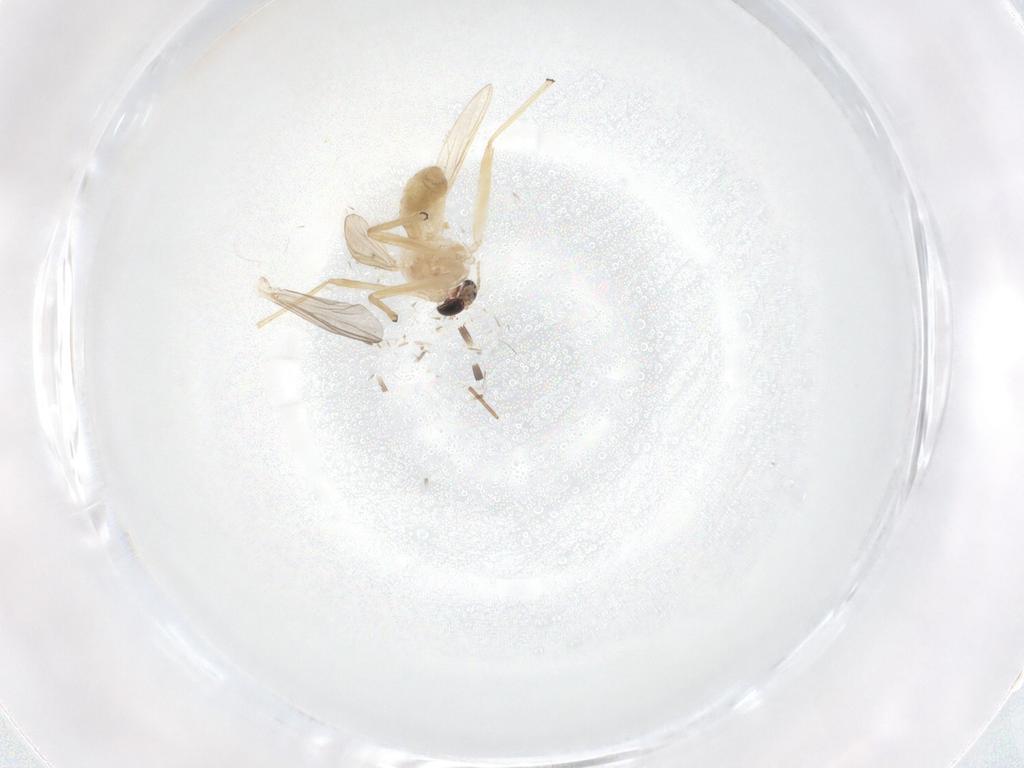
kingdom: Animalia
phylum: Arthropoda
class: Insecta
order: Diptera
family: Chironomidae
